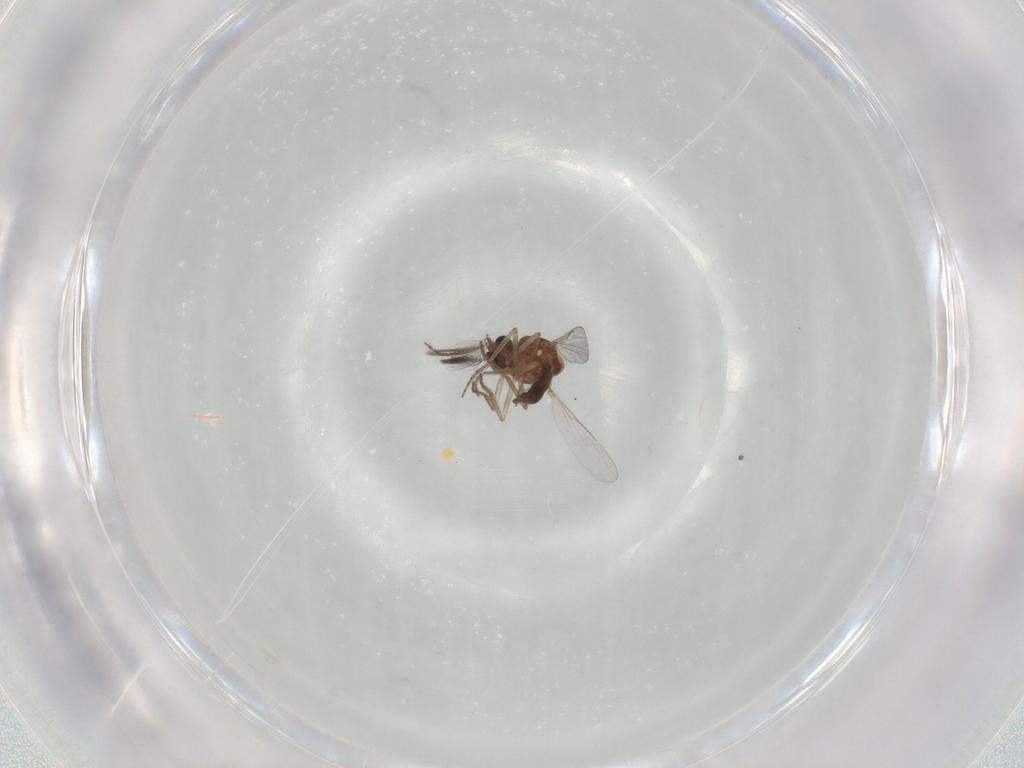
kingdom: Animalia
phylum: Arthropoda
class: Insecta
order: Diptera
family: Ceratopogonidae
